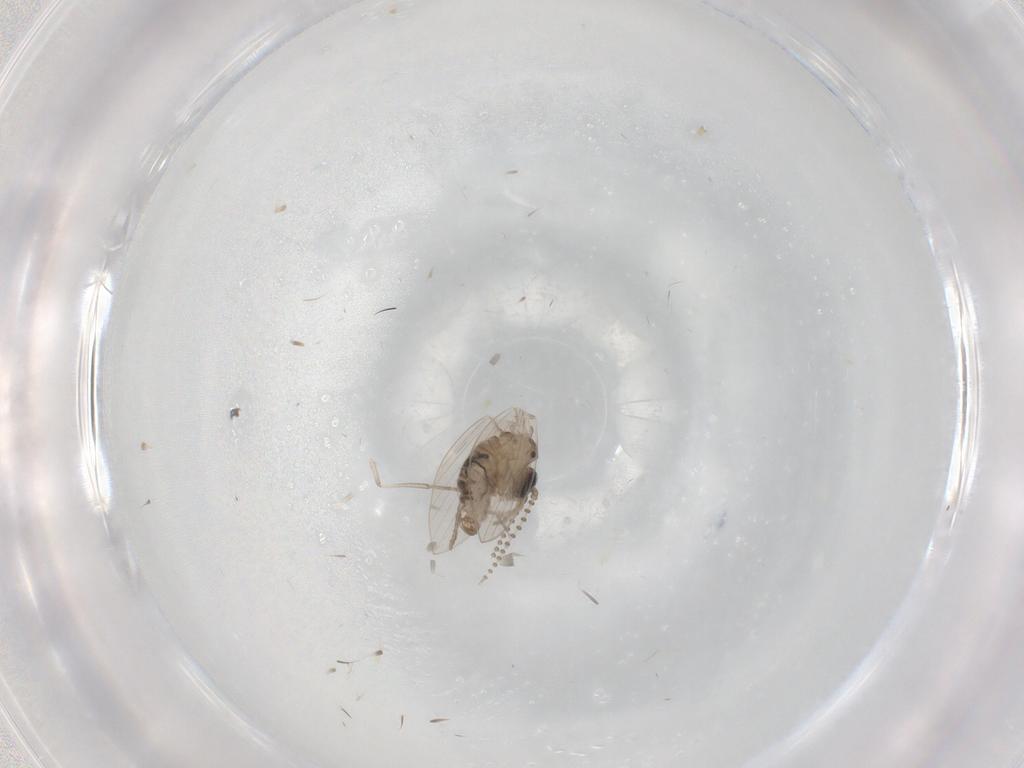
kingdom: Animalia
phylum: Arthropoda
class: Insecta
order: Diptera
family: Psychodidae
